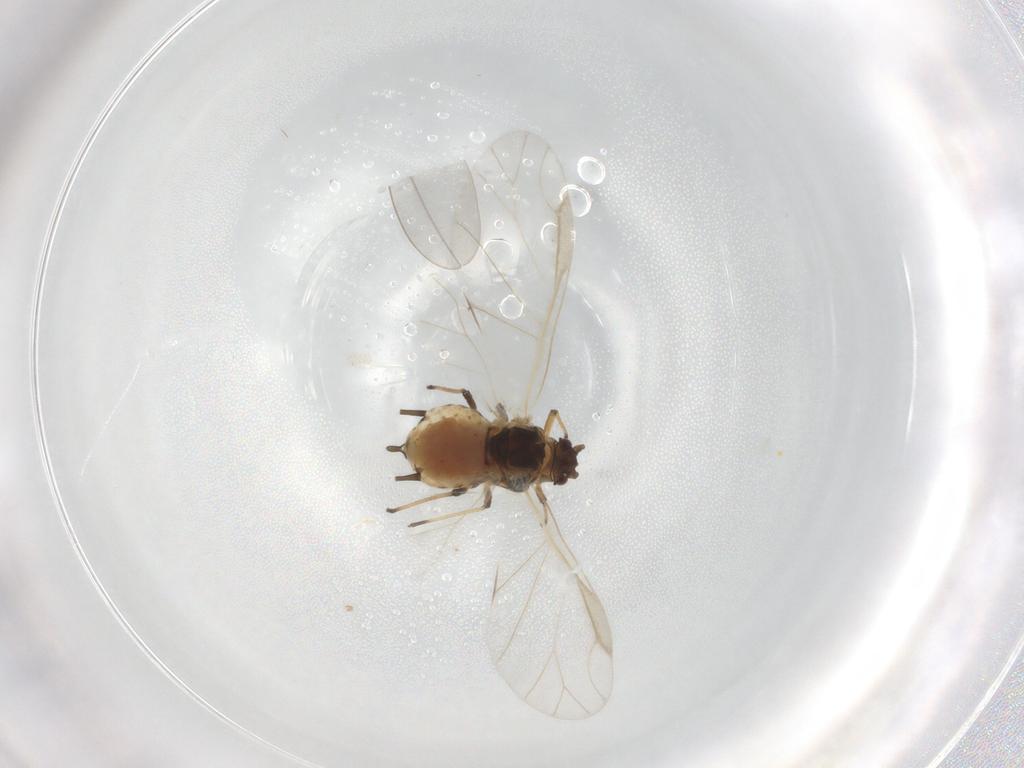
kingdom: Animalia
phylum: Arthropoda
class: Insecta
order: Hemiptera
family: Aphididae
